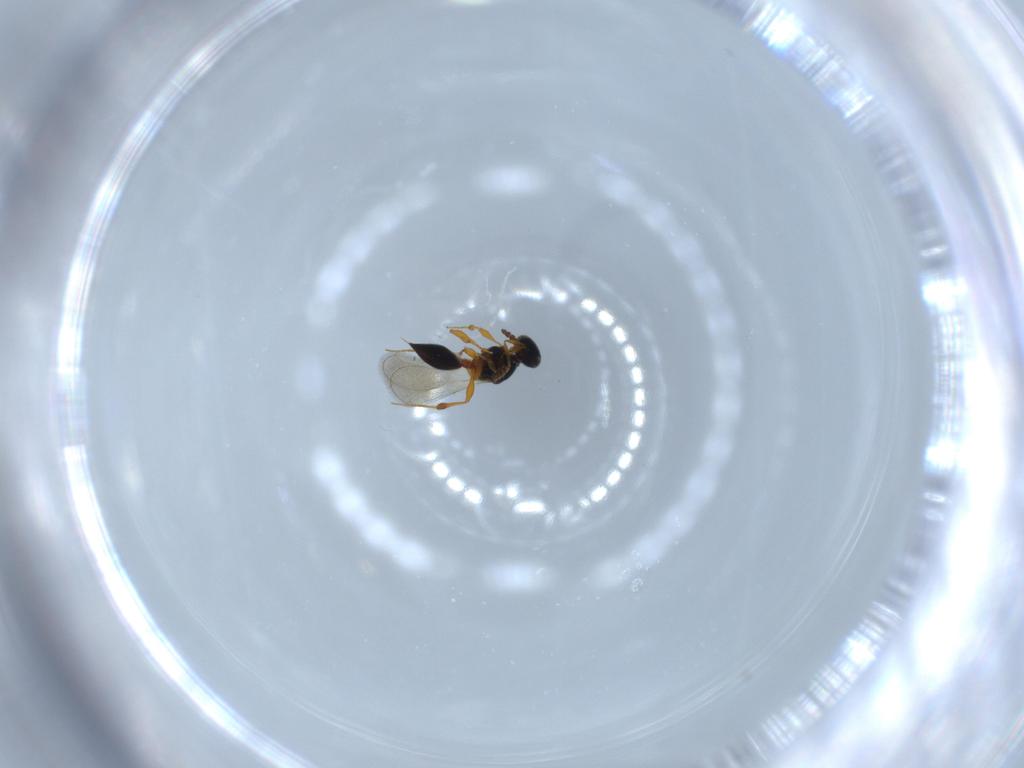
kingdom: Animalia
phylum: Arthropoda
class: Insecta
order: Hymenoptera
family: Platygastridae
